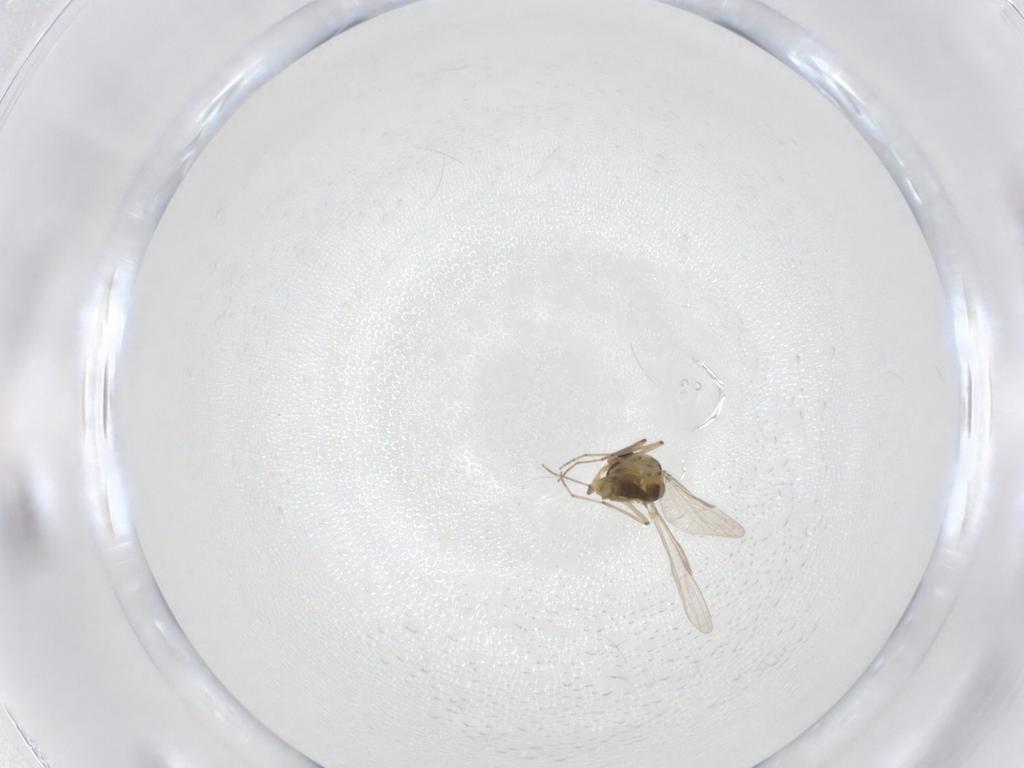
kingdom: Animalia
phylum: Arthropoda
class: Insecta
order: Diptera
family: Chironomidae
